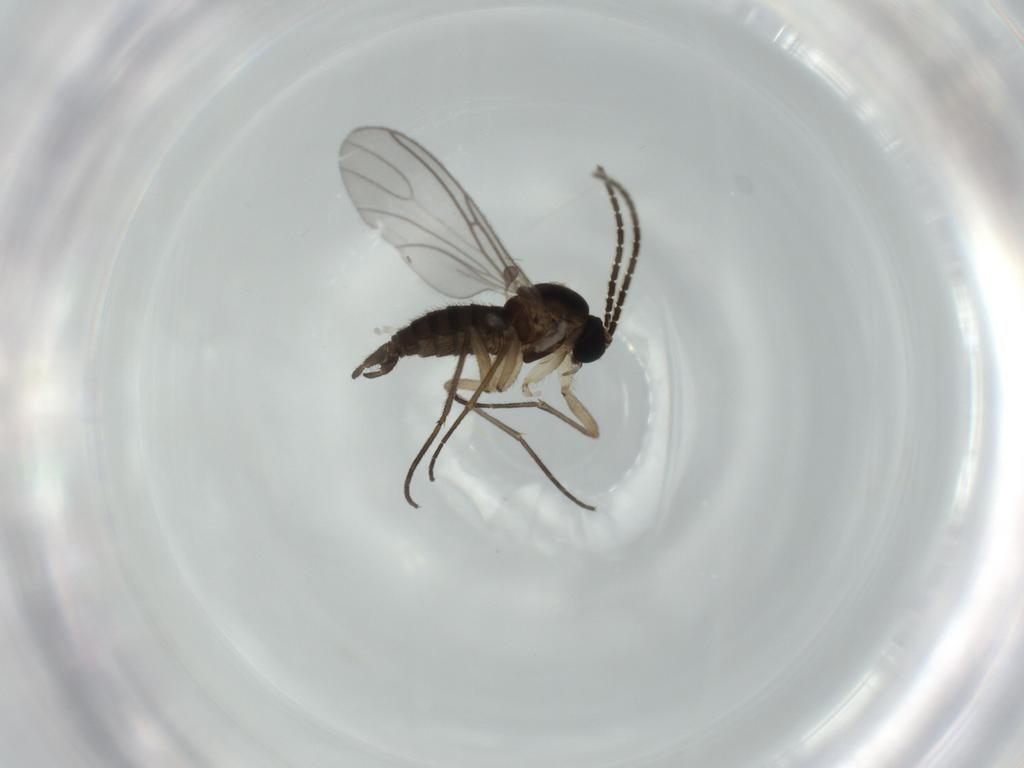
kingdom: Animalia
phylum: Arthropoda
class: Insecta
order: Diptera
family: Sciaridae
